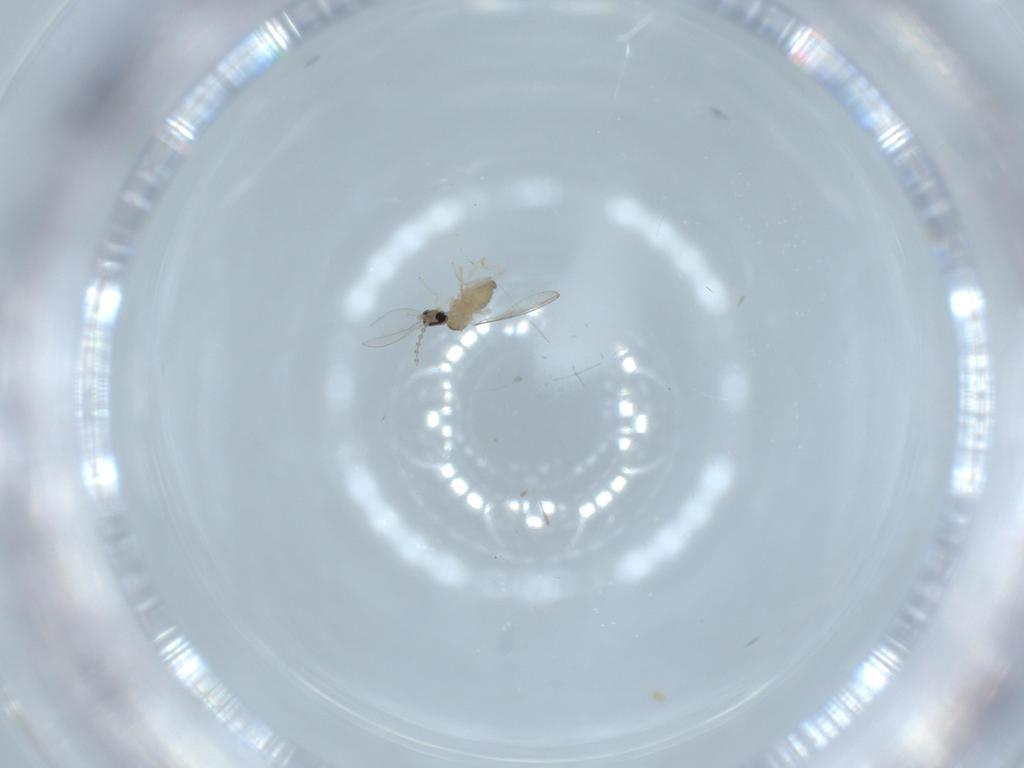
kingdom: Animalia
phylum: Arthropoda
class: Insecta
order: Diptera
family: Cecidomyiidae
